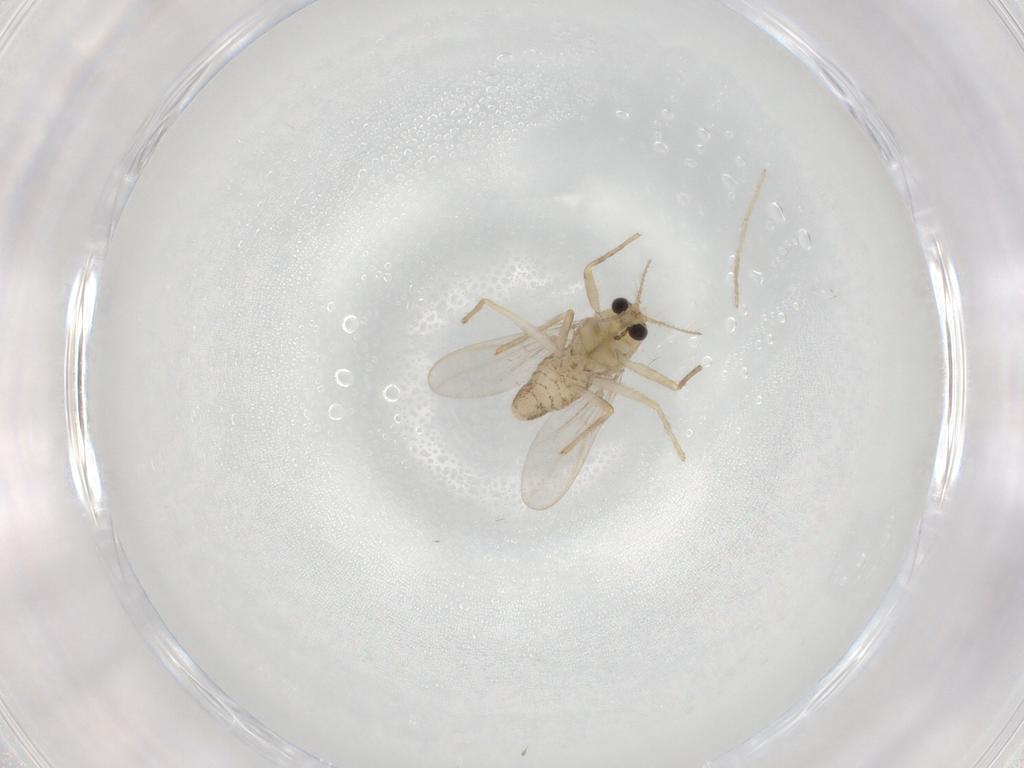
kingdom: Animalia
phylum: Arthropoda
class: Insecta
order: Diptera
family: Chironomidae
